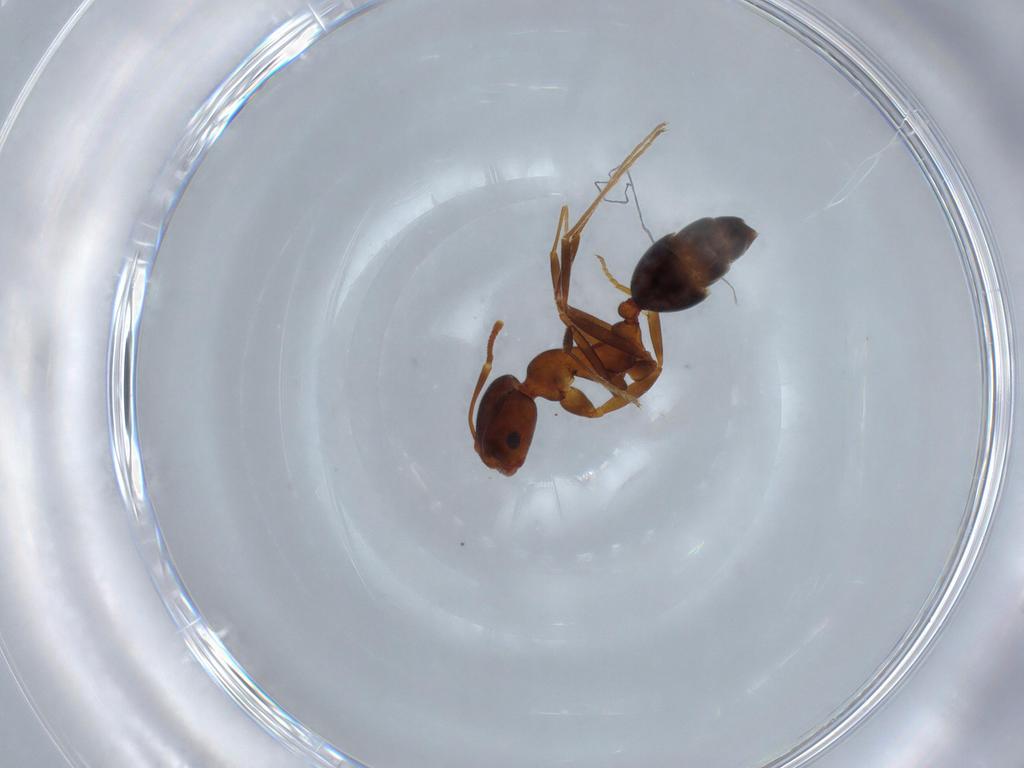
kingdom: Animalia
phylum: Arthropoda
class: Insecta
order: Hymenoptera
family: Formicidae
